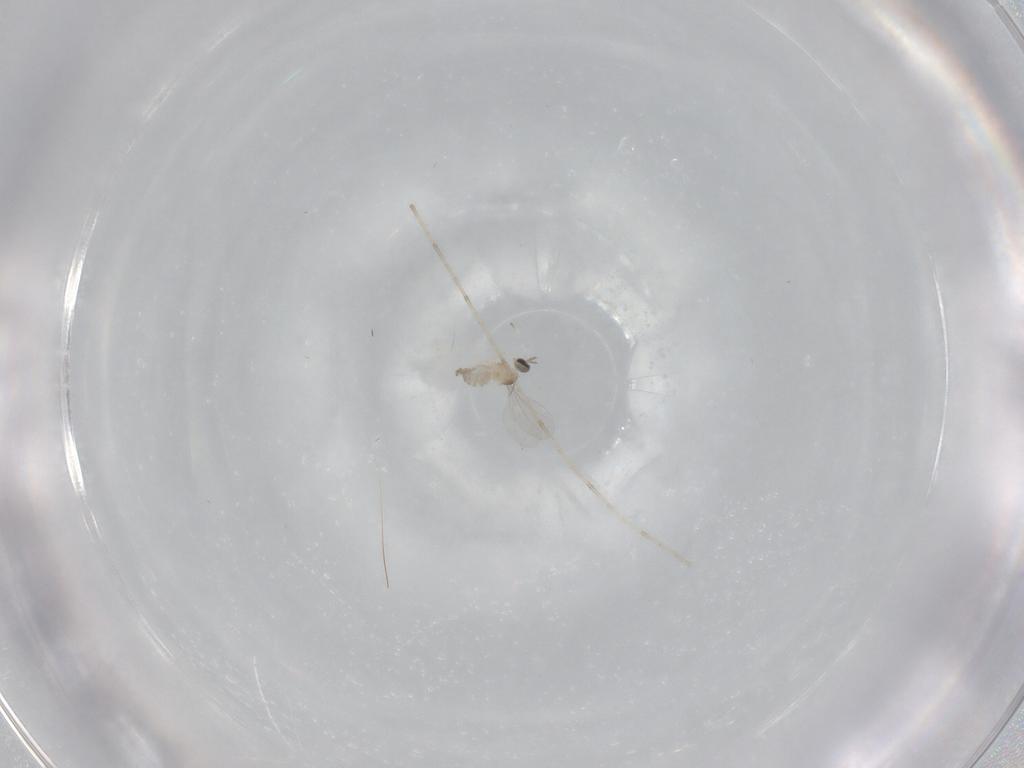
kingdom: Animalia
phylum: Arthropoda
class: Insecta
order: Diptera
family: Cecidomyiidae
